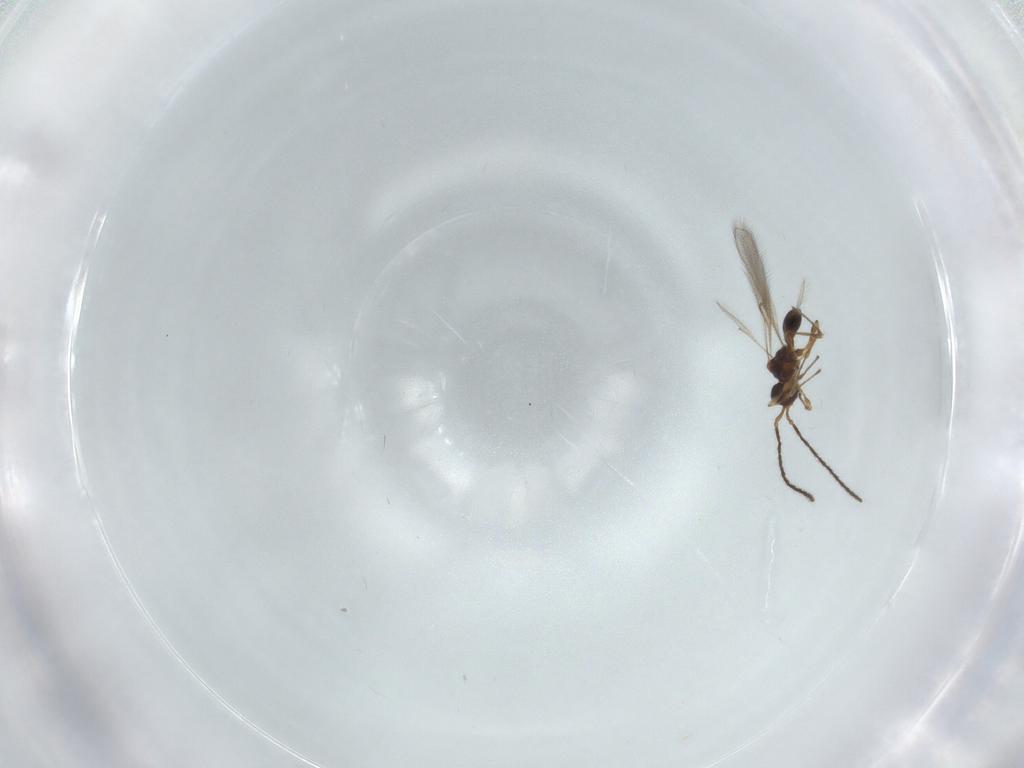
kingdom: Animalia
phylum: Arthropoda
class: Insecta
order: Hymenoptera
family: Diapriidae
